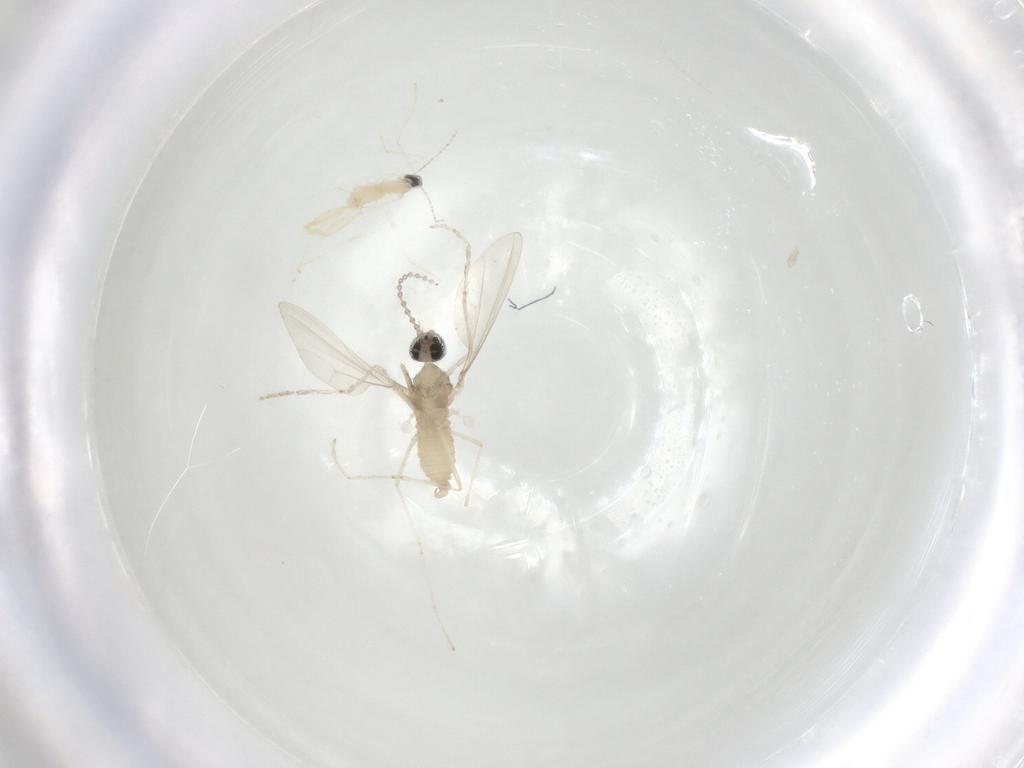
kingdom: Animalia
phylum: Arthropoda
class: Insecta
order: Diptera
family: Cecidomyiidae
